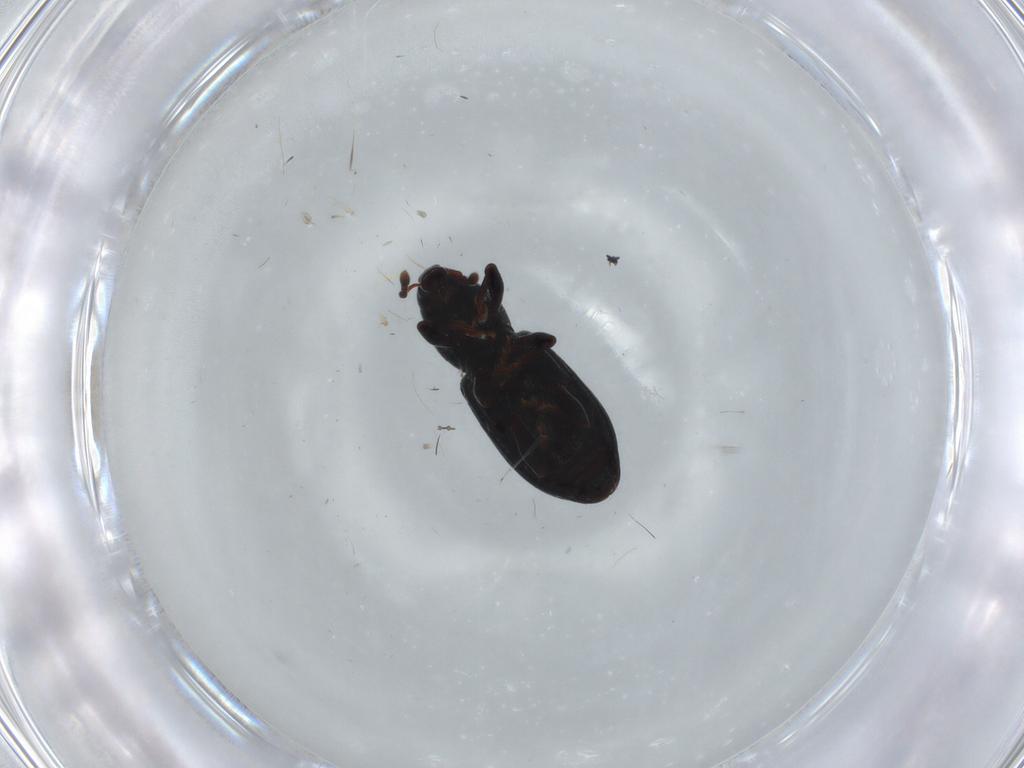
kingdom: Animalia
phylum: Arthropoda
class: Insecta
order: Coleoptera
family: Curculionidae
